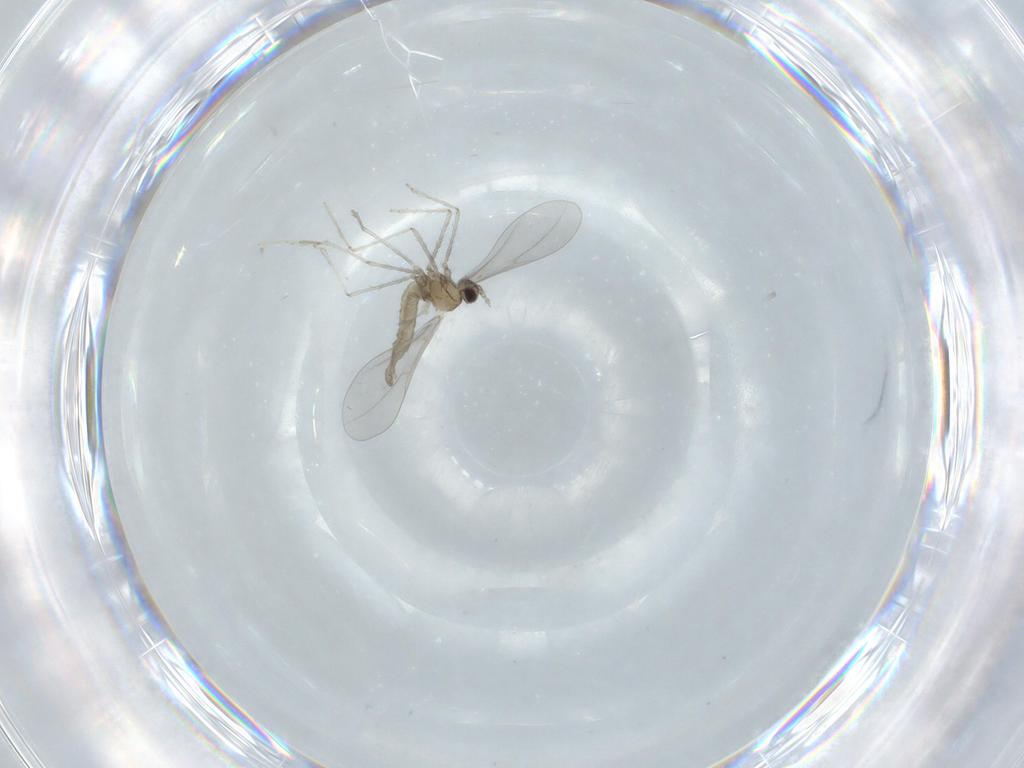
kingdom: Animalia
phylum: Arthropoda
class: Insecta
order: Diptera
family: Cecidomyiidae
